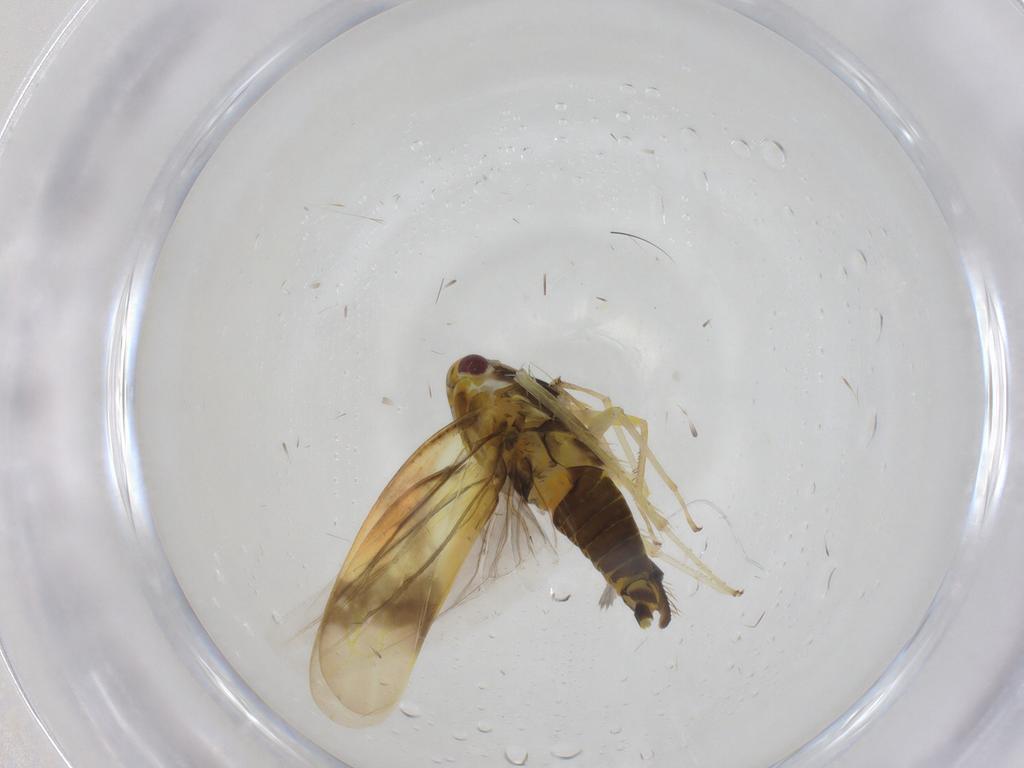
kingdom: Animalia
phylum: Arthropoda
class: Insecta
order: Hemiptera
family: Cicadellidae
